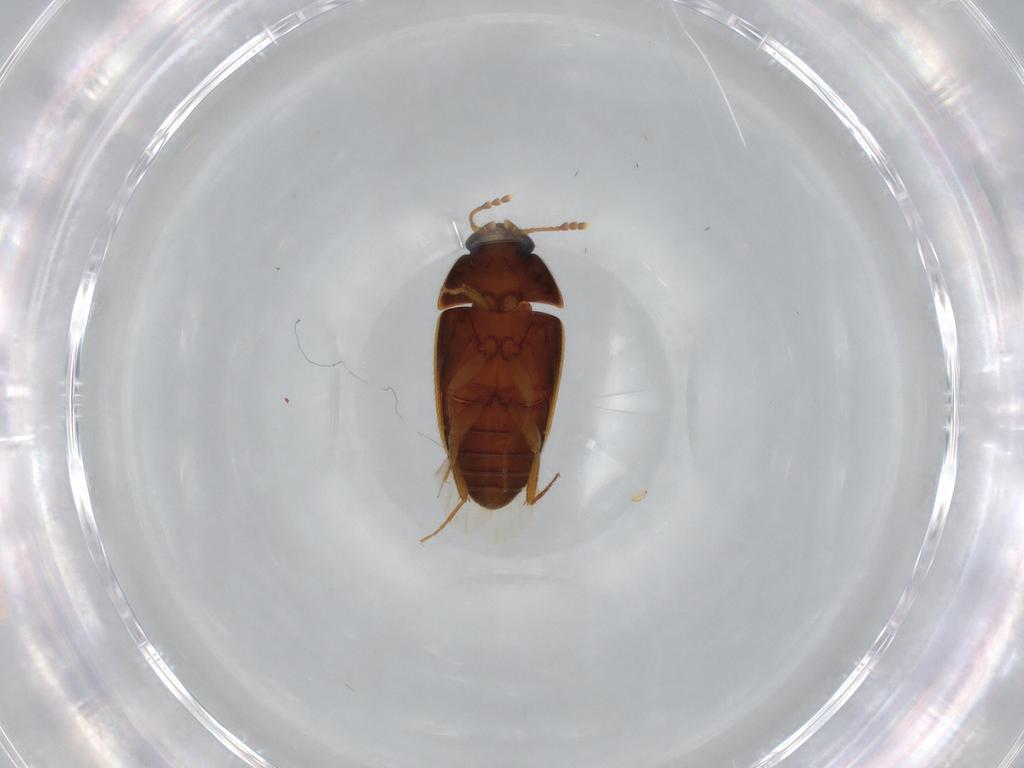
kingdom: Animalia
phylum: Arthropoda
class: Insecta
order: Coleoptera
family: Mycetophagidae
